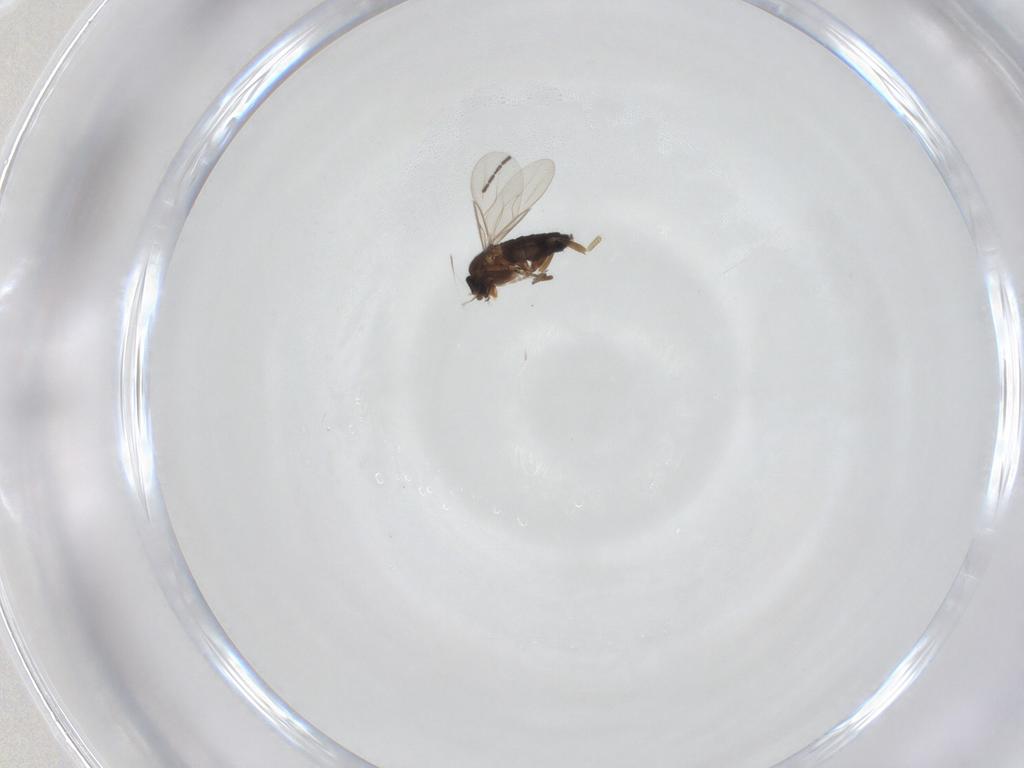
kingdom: Animalia
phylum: Arthropoda
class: Insecta
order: Diptera
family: Phoridae
